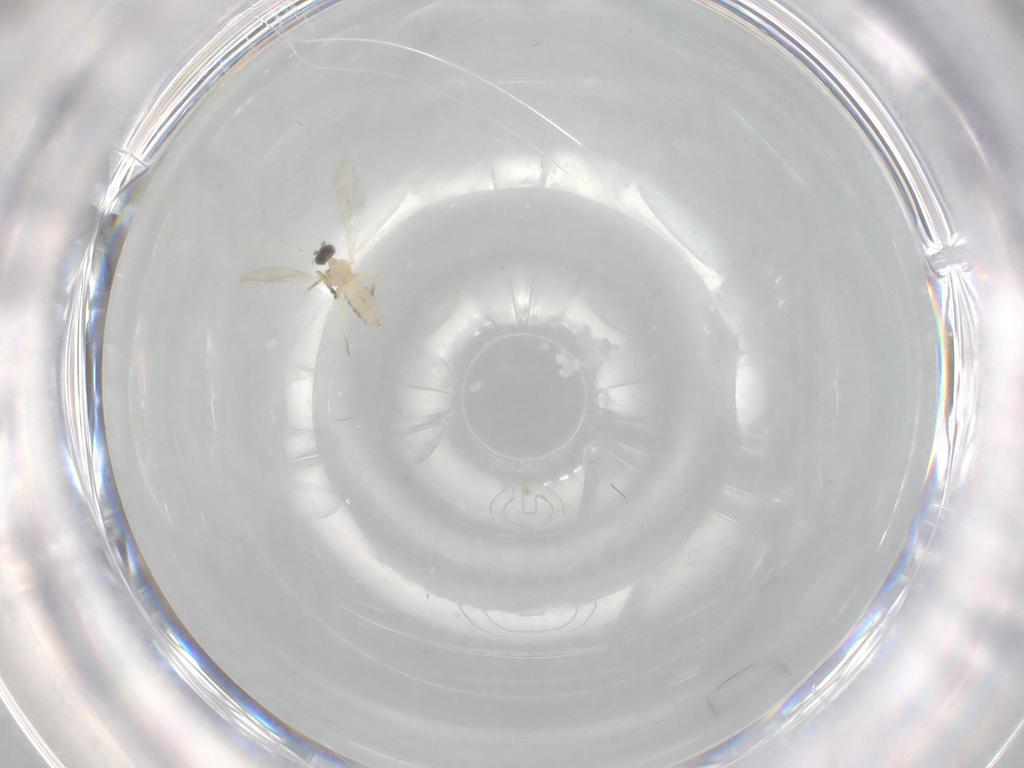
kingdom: Animalia
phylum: Arthropoda
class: Insecta
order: Diptera
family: Cecidomyiidae
